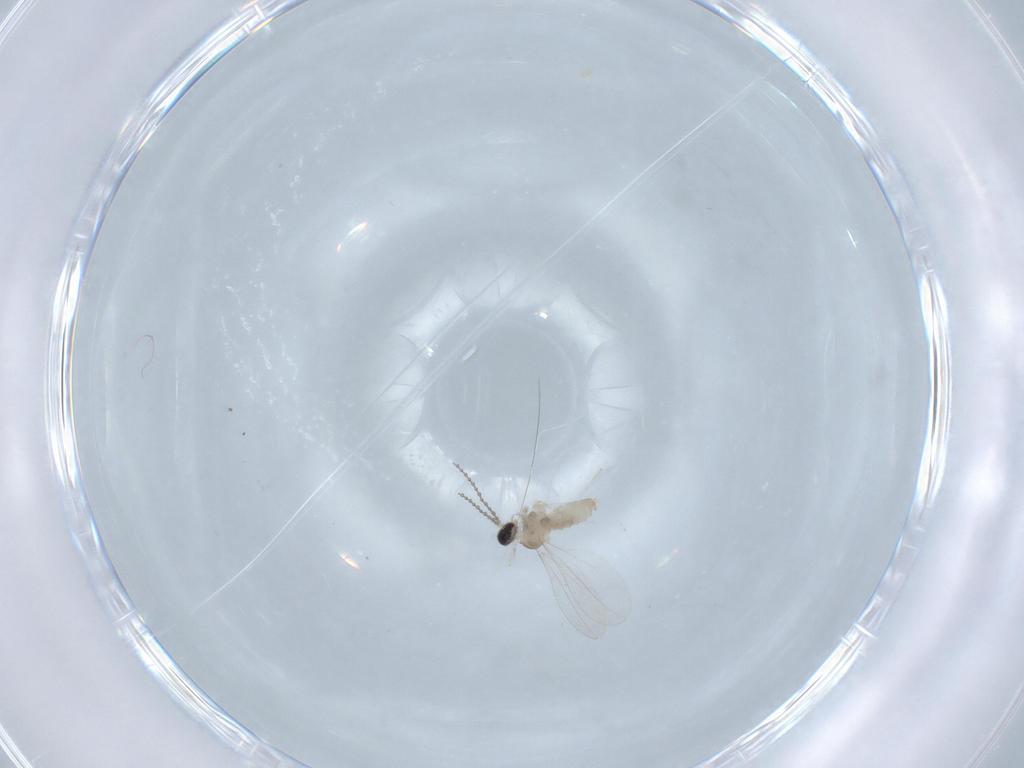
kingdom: Animalia
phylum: Arthropoda
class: Insecta
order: Diptera
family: Cecidomyiidae
